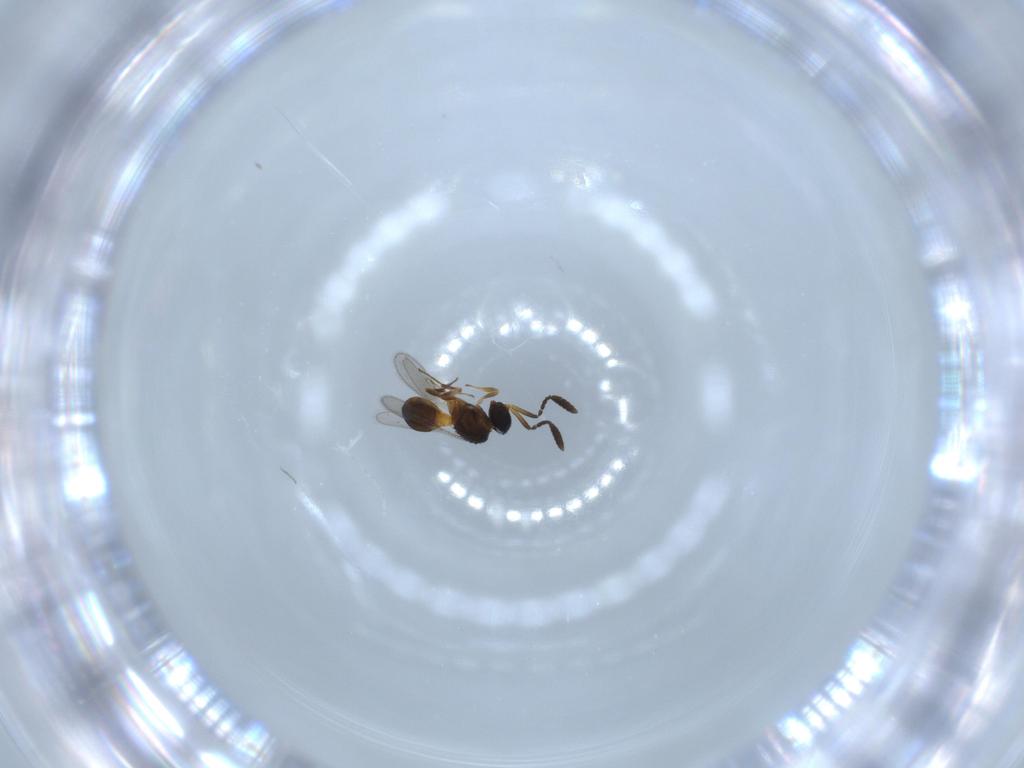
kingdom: Animalia
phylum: Arthropoda
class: Insecta
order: Hymenoptera
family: Scelionidae
